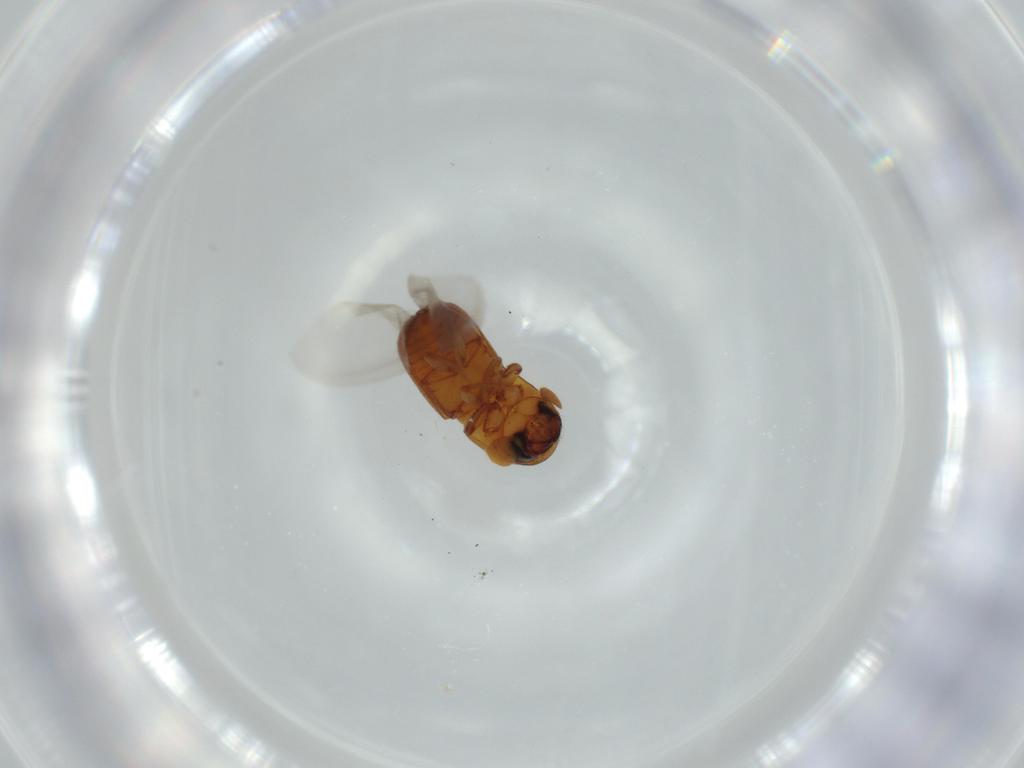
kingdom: Animalia
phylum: Arthropoda
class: Insecta
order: Coleoptera
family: Curculionidae
